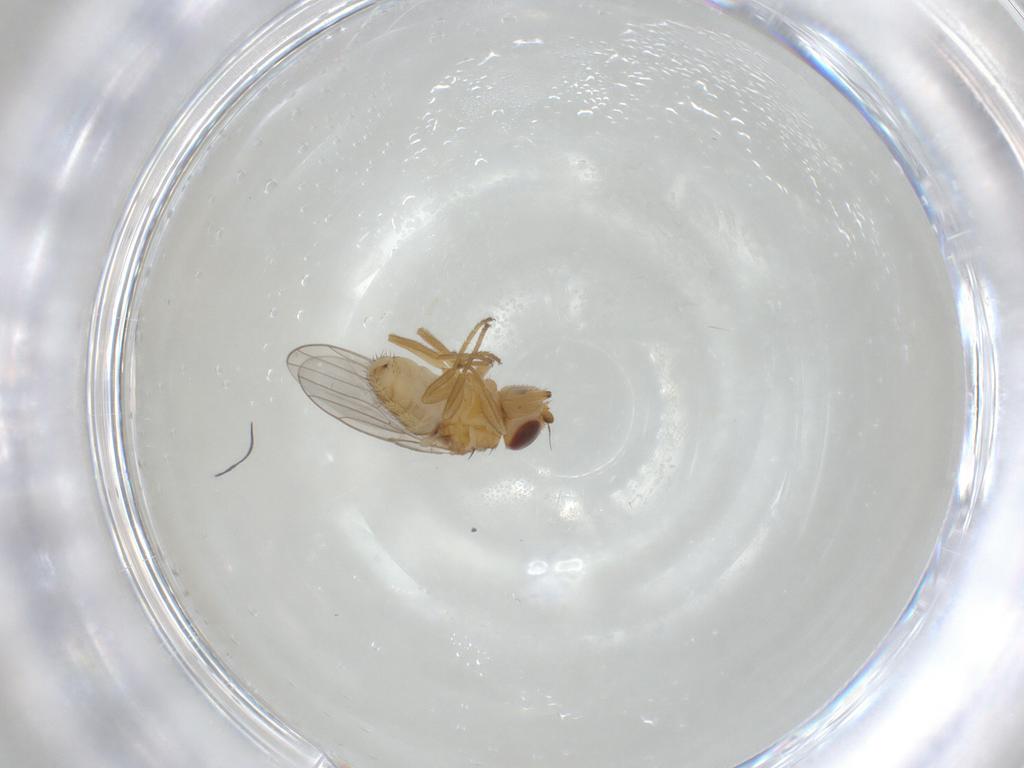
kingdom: Animalia
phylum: Arthropoda
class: Insecta
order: Diptera
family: Chloropidae
